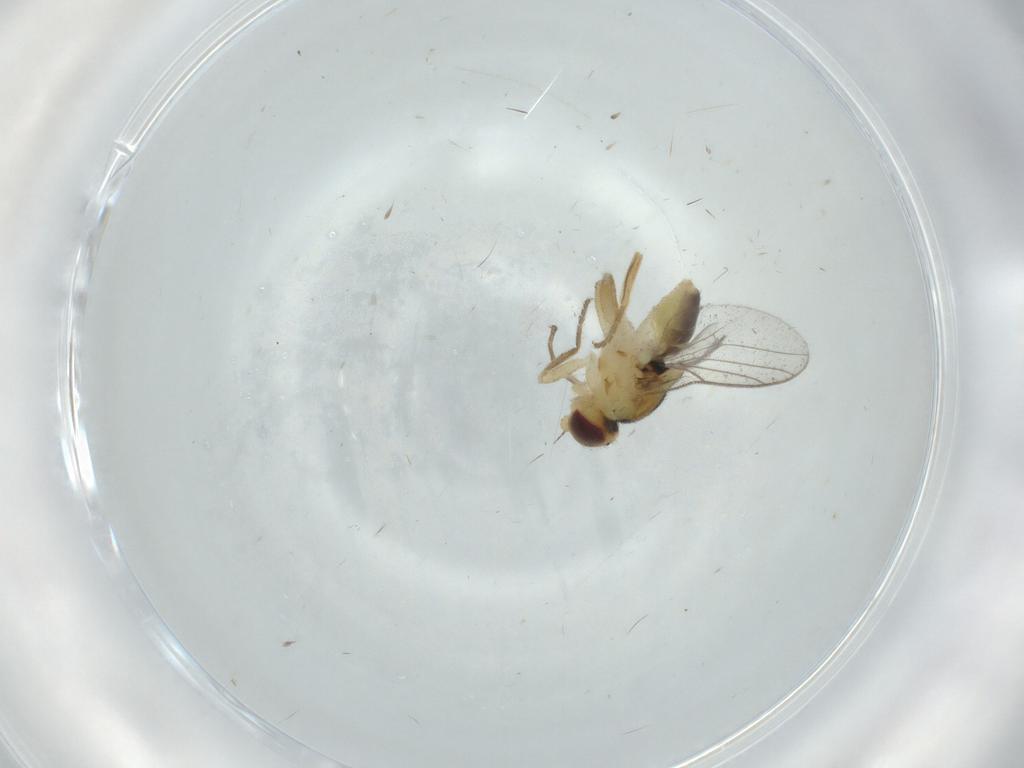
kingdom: Animalia
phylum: Arthropoda
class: Insecta
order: Diptera
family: Chloropidae
